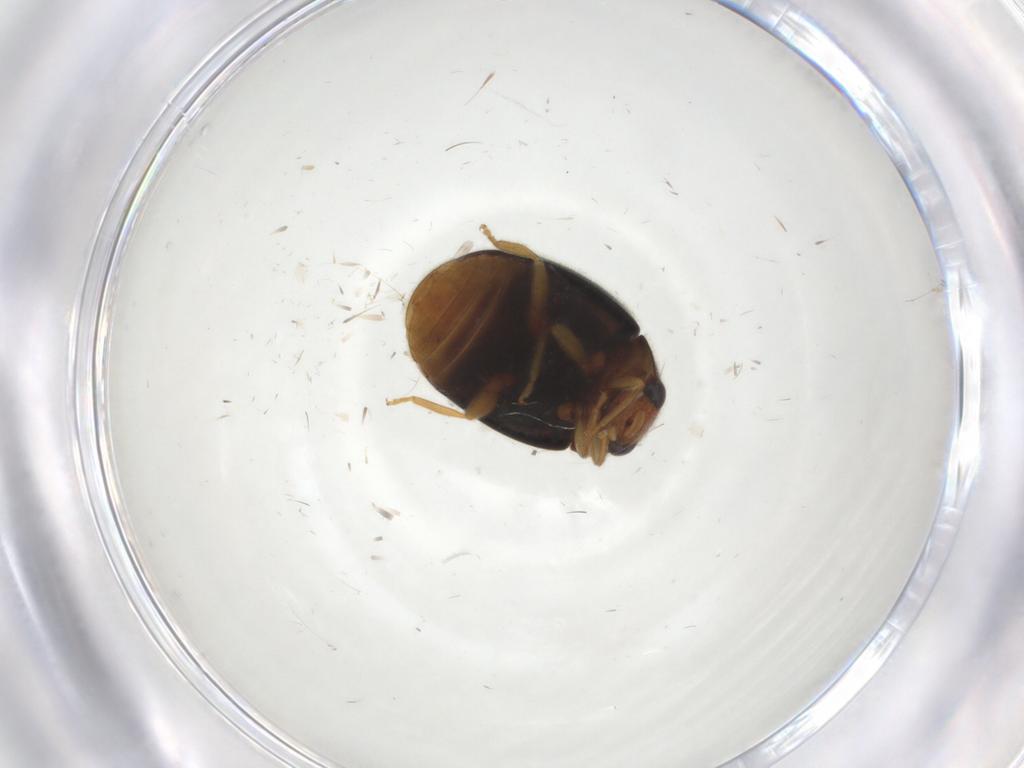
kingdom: Animalia
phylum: Arthropoda
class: Insecta
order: Coleoptera
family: Coccinellidae
